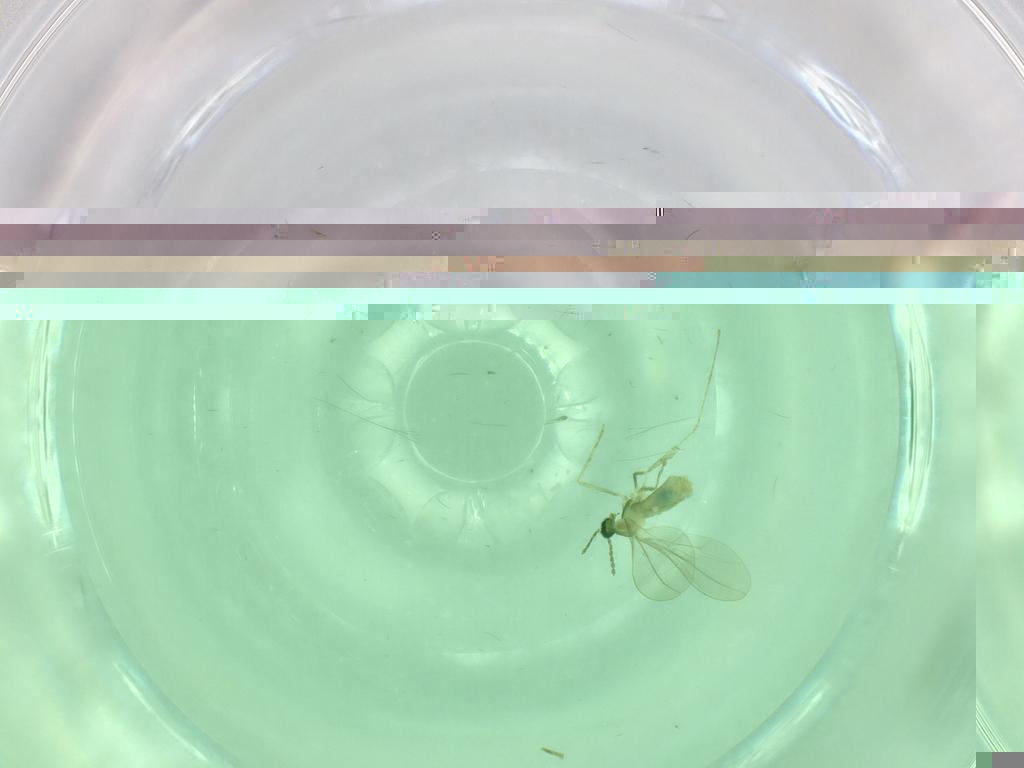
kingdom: Animalia
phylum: Arthropoda
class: Insecta
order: Diptera
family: Cecidomyiidae
